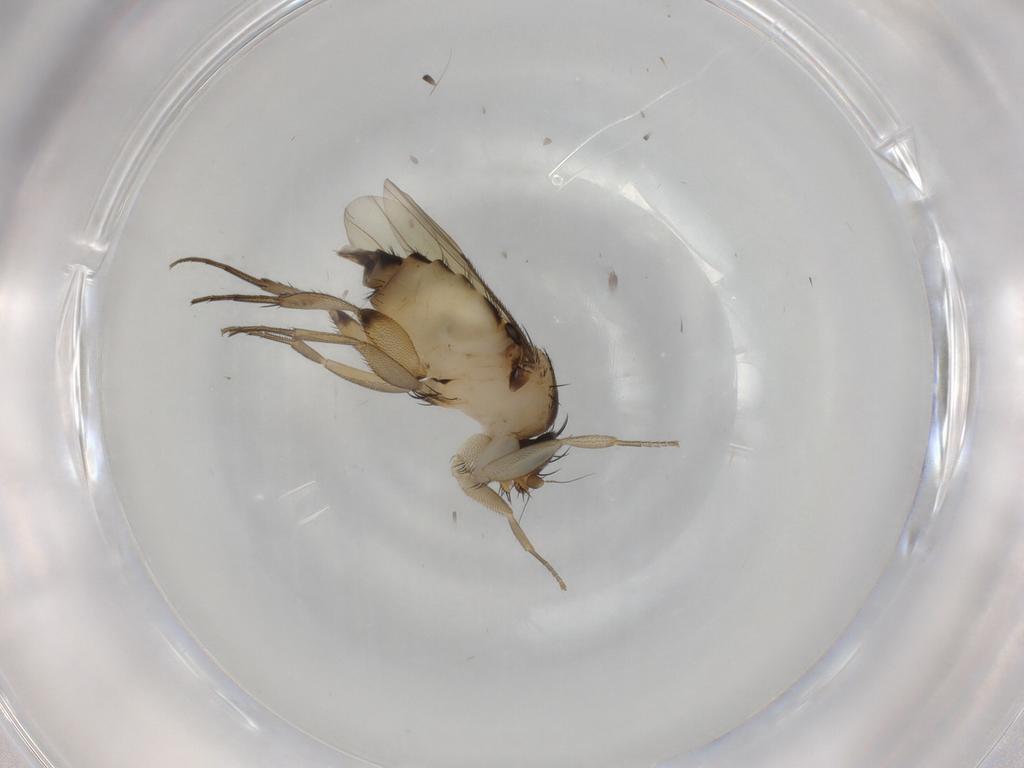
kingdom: Animalia
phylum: Arthropoda
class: Insecta
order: Diptera
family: Phoridae
